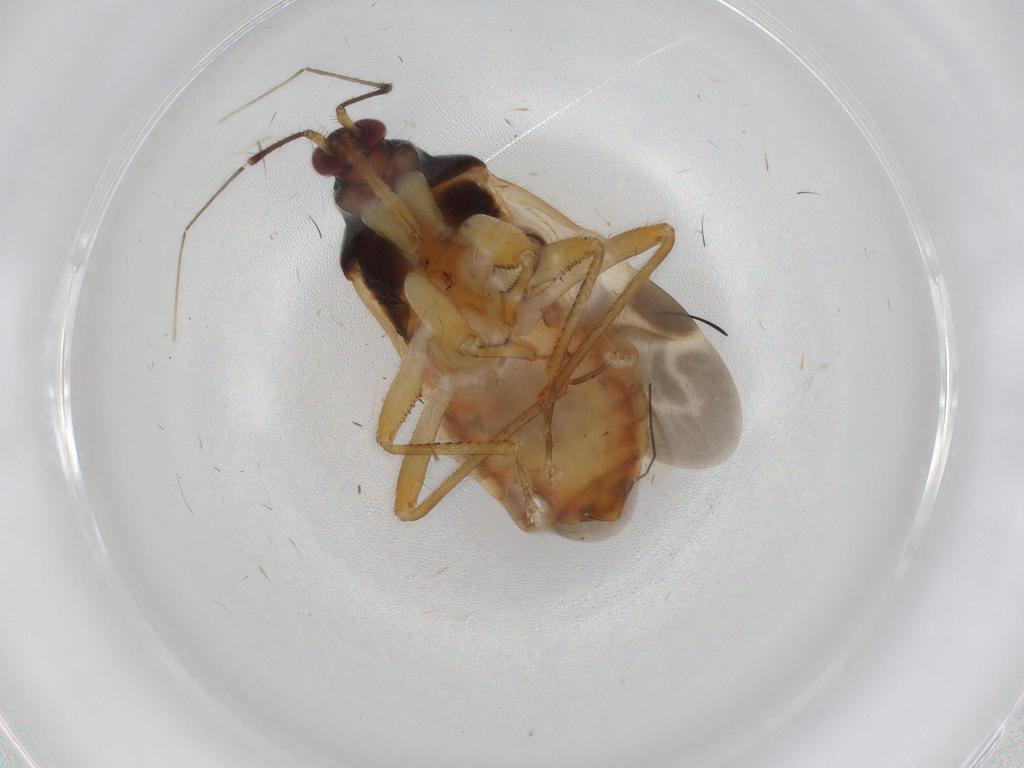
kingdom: Animalia
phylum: Arthropoda
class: Insecta
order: Hemiptera
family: Nabidae
